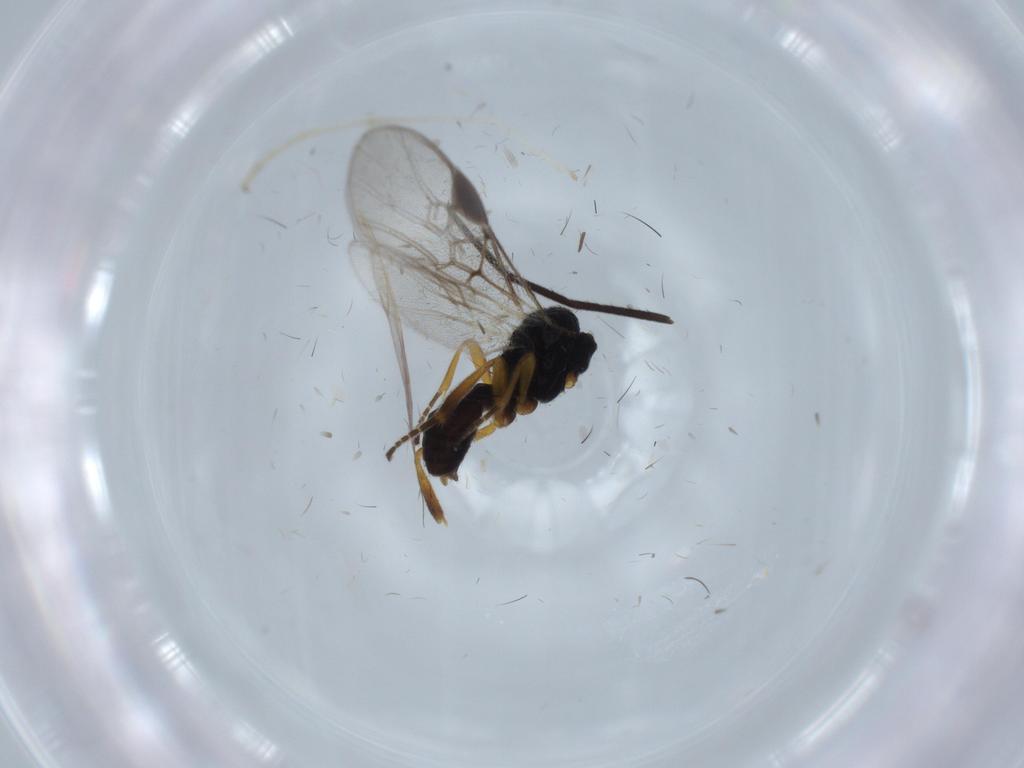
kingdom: Animalia
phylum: Arthropoda
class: Insecta
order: Hymenoptera
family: Braconidae
